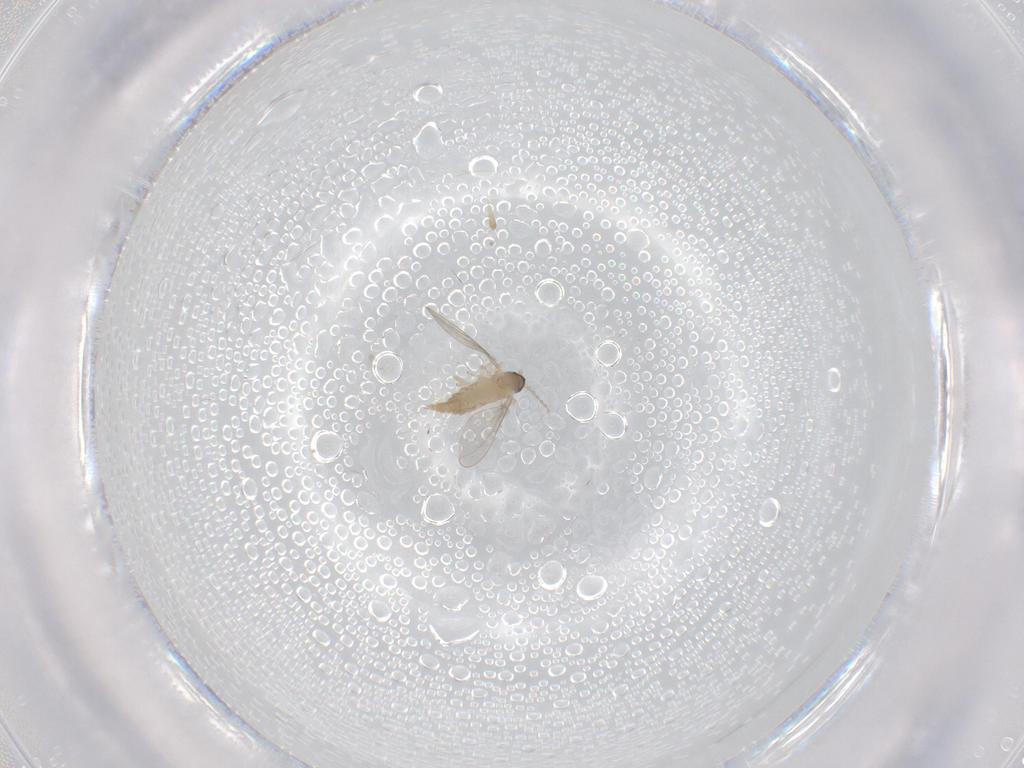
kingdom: Animalia
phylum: Arthropoda
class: Insecta
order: Diptera
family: Cecidomyiidae
